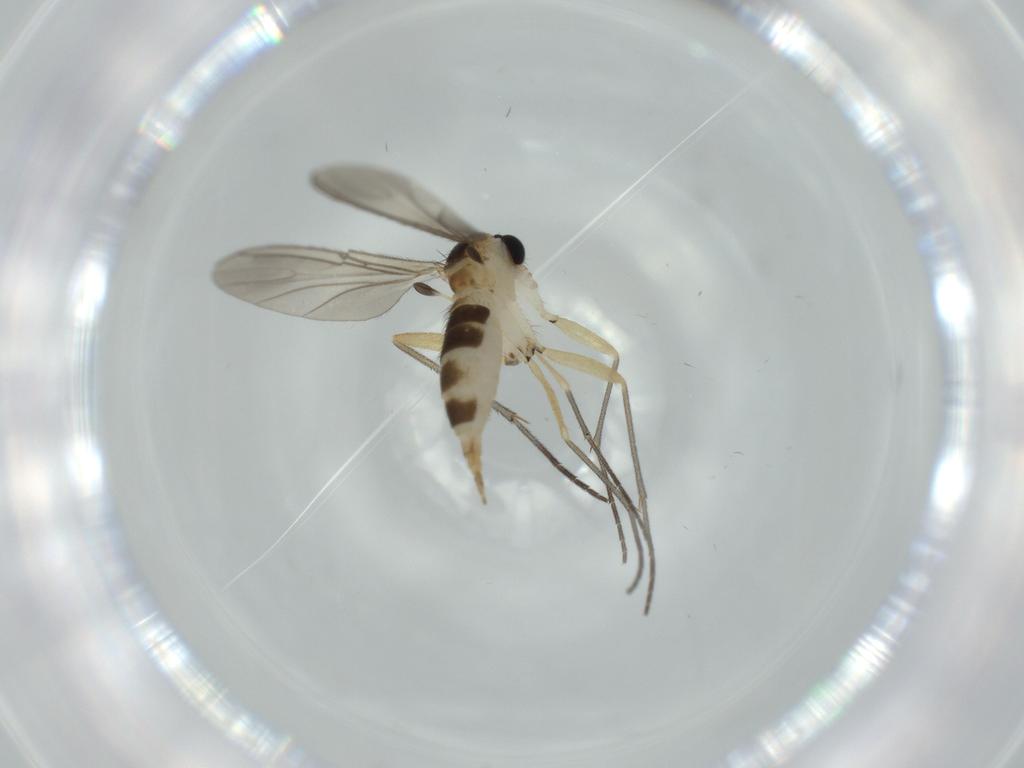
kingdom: Animalia
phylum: Arthropoda
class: Insecta
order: Diptera
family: Sciaridae
